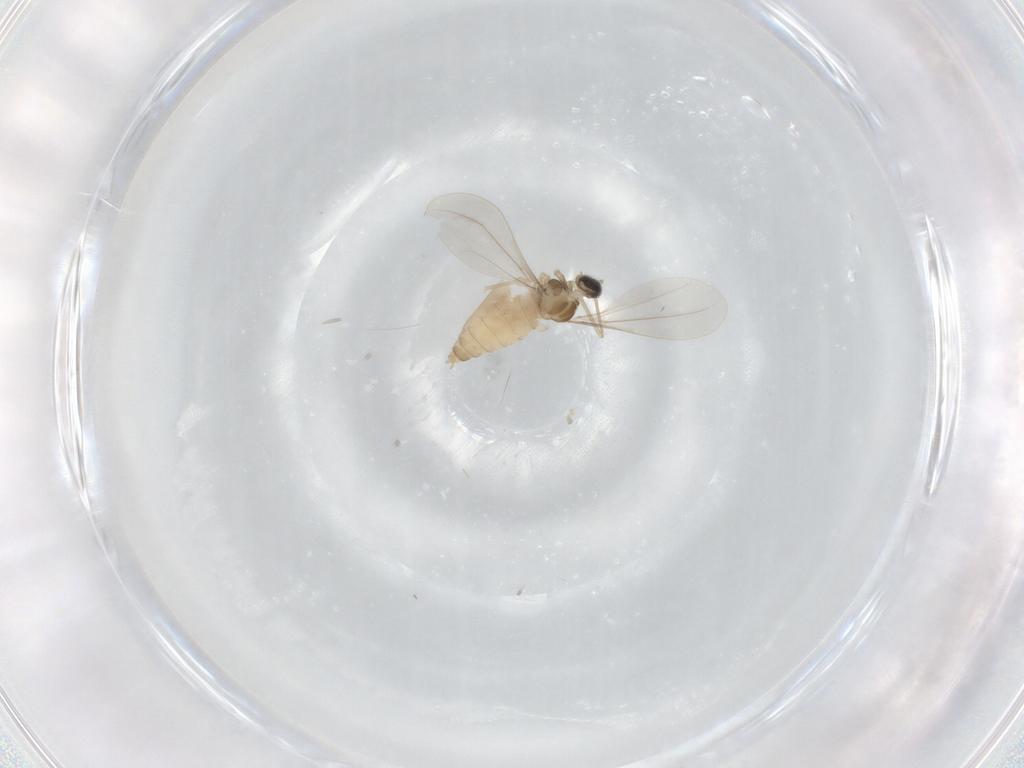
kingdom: Animalia
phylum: Arthropoda
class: Insecta
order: Diptera
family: Cecidomyiidae
